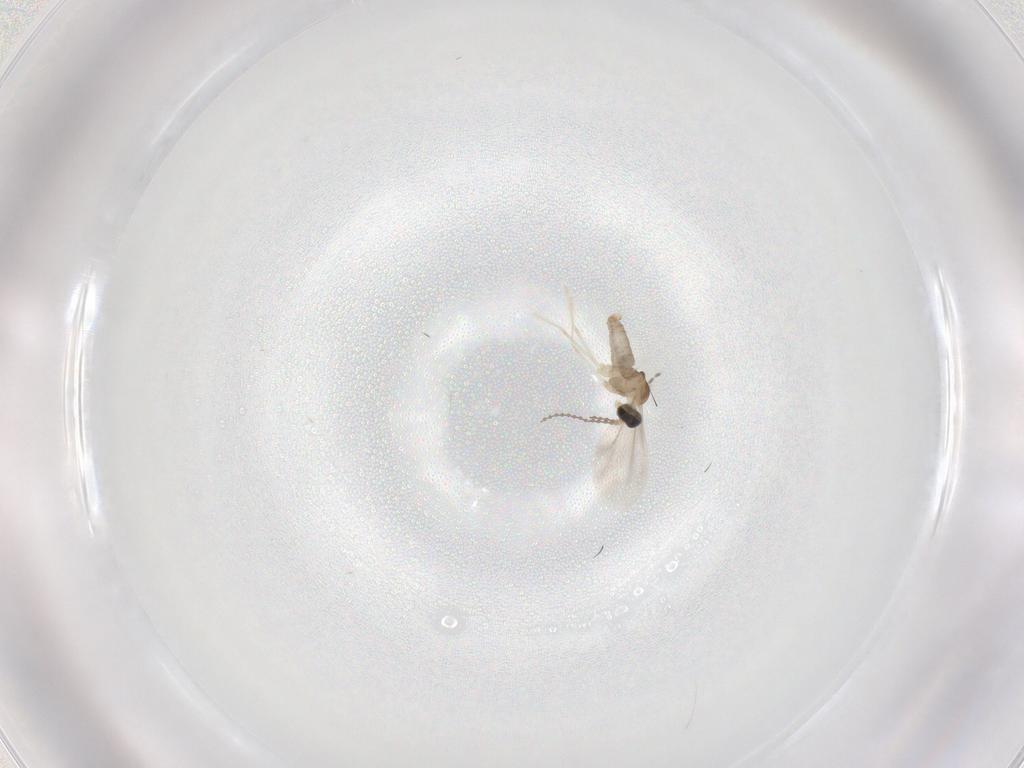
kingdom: Animalia
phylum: Arthropoda
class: Insecta
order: Diptera
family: Cecidomyiidae
